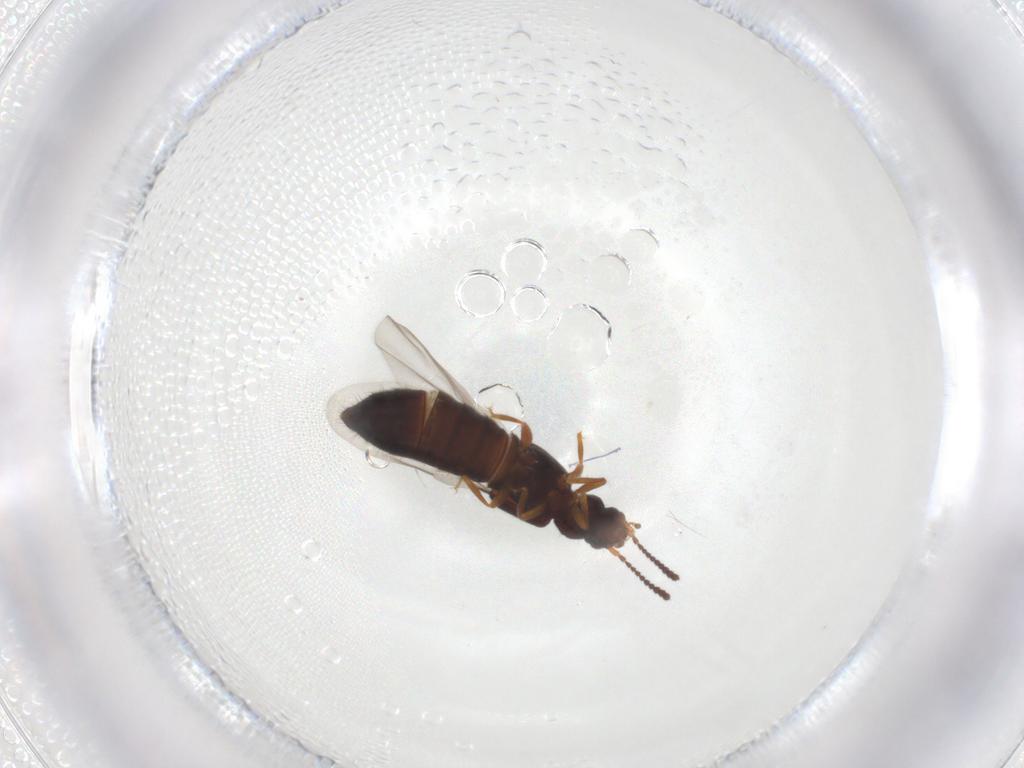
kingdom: Animalia
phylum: Arthropoda
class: Insecta
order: Coleoptera
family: Staphylinidae
